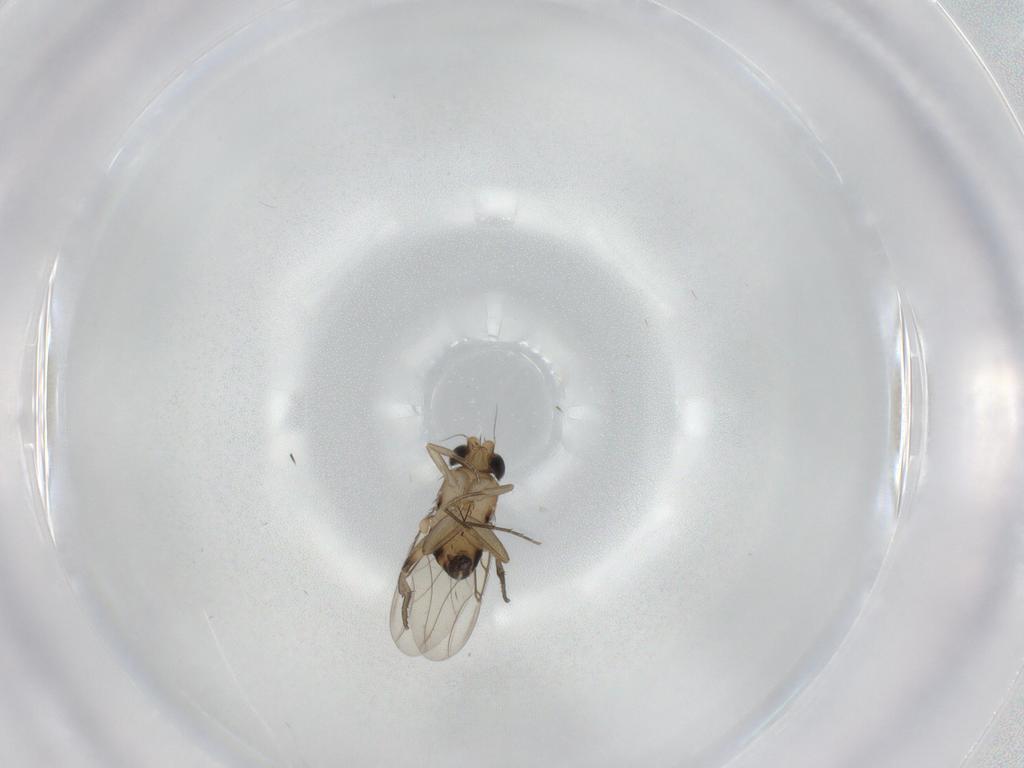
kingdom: Animalia
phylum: Arthropoda
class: Insecta
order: Diptera
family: Phoridae
